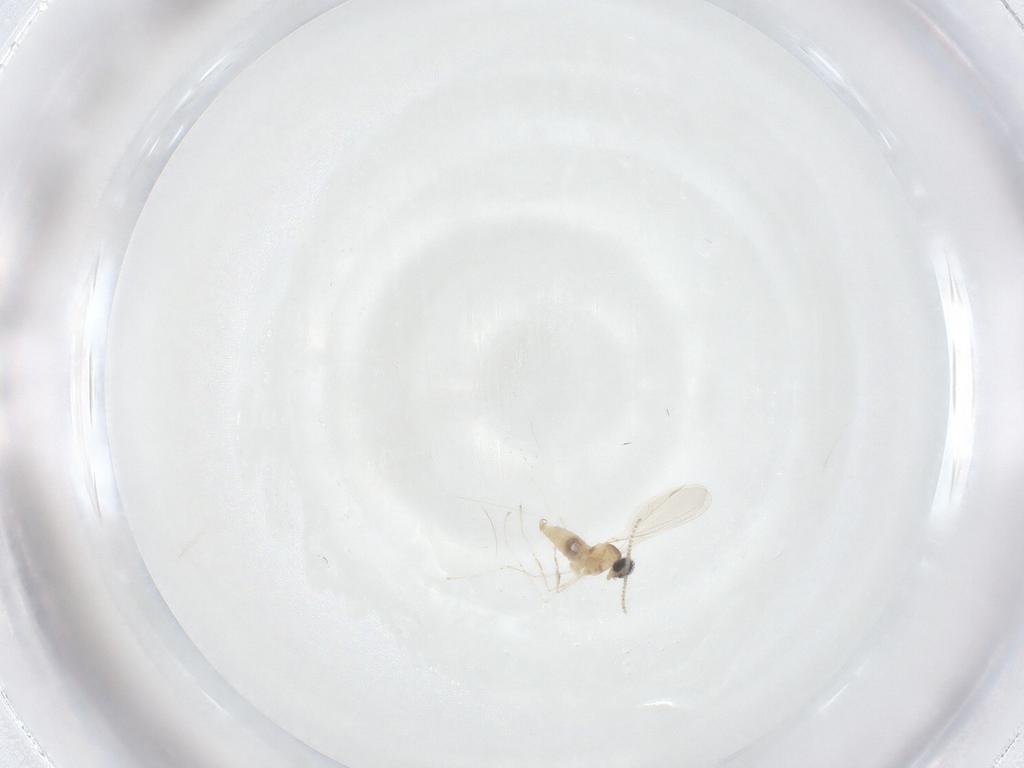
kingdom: Animalia
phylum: Arthropoda
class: Insecta
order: Diptera
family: Cecidomyiidae
